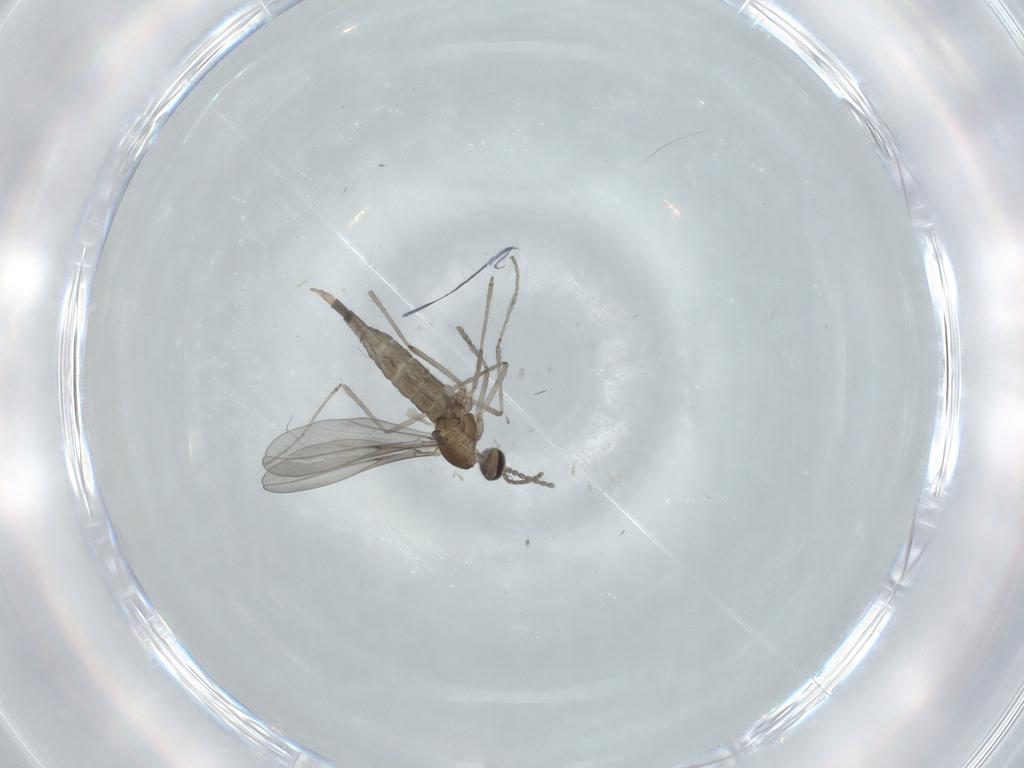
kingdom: Animalia
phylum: Arthropoda
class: Insecta
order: Diptera
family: Cecidomyiidae
